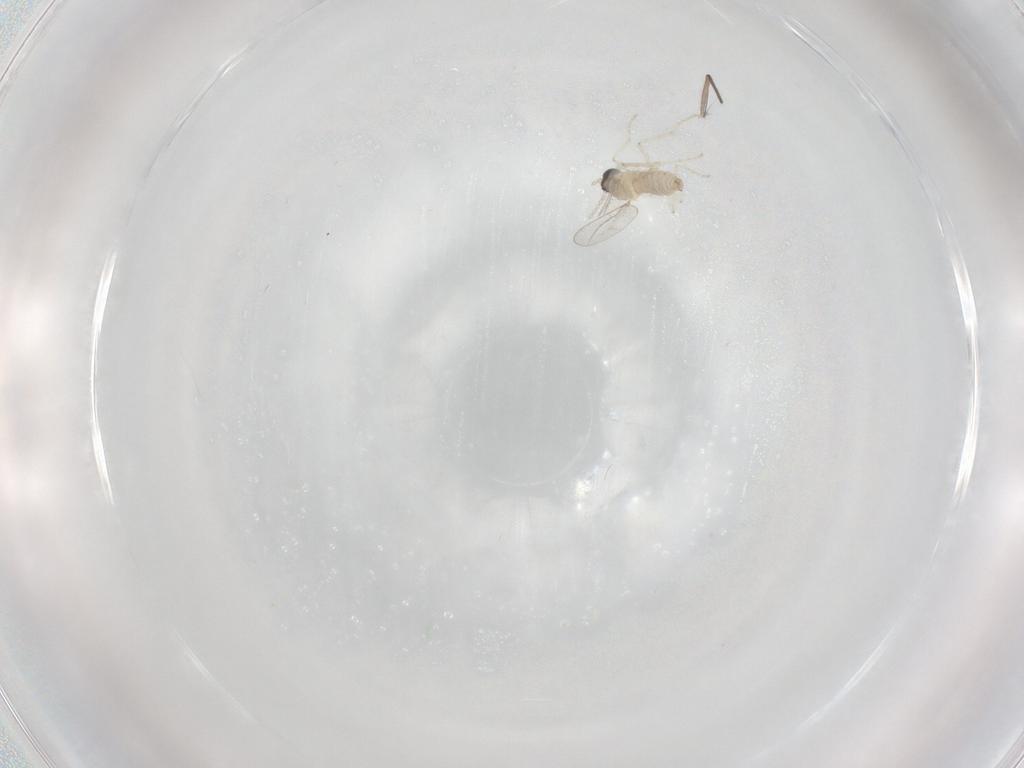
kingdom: Animalia
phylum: Arthropoda
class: Insecta
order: Diptera
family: Cecidomyiidae
